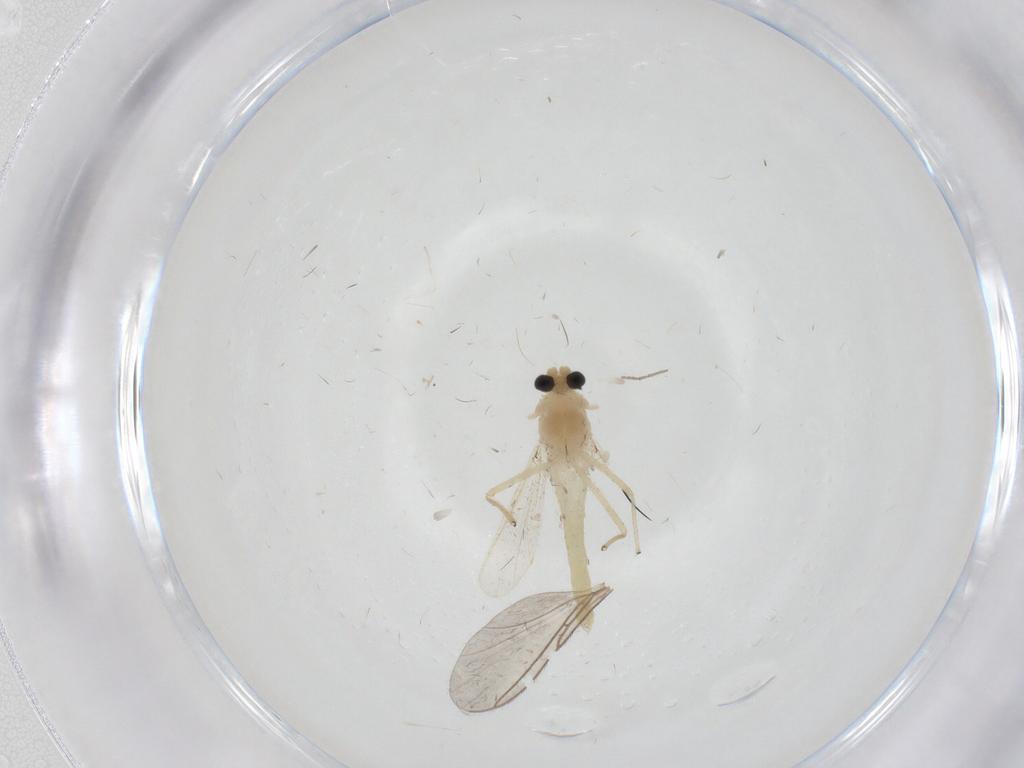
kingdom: Animalia
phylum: Arthropoda
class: Insecta
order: Diptera
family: Chironomidae
